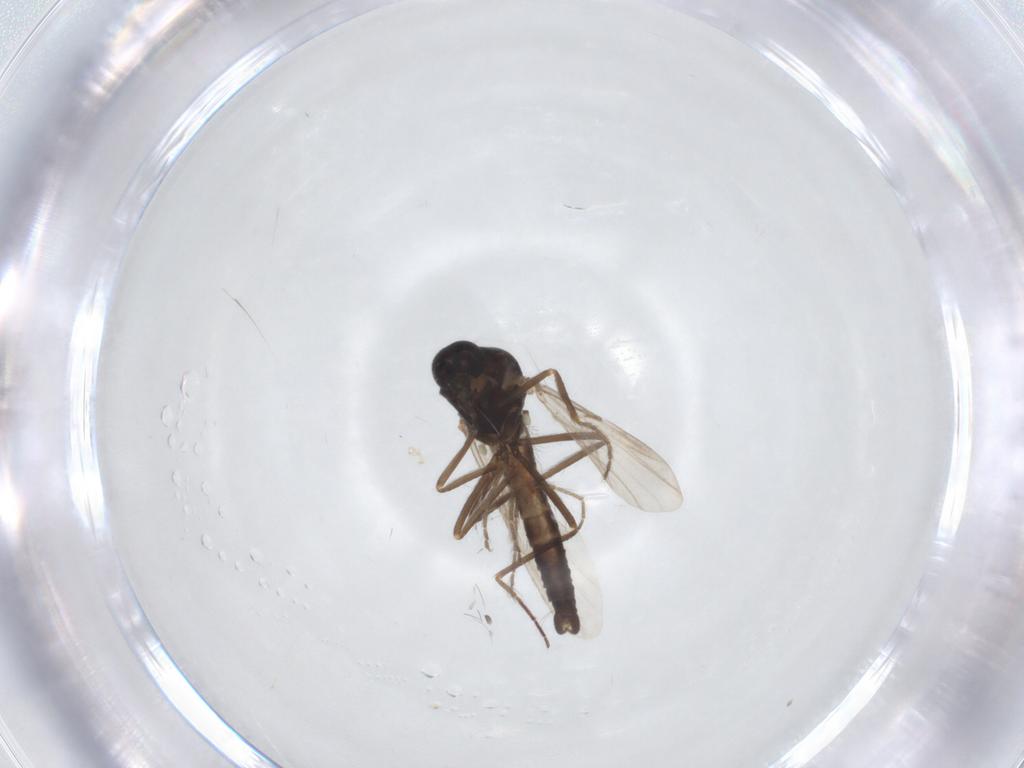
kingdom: Animalia
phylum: Arthropoda
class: Insecta
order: Diptera
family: Ceratopogonidae
